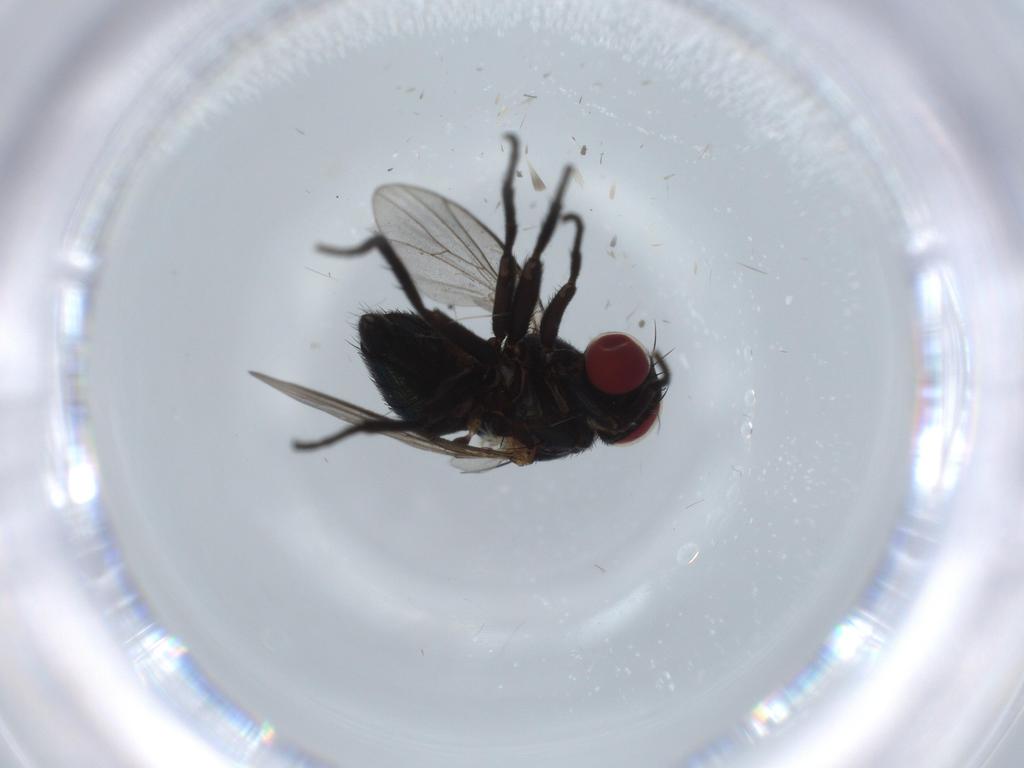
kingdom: Animalia
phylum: Arthropoda
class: Insecta
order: Diptera
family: Agromyzidae
